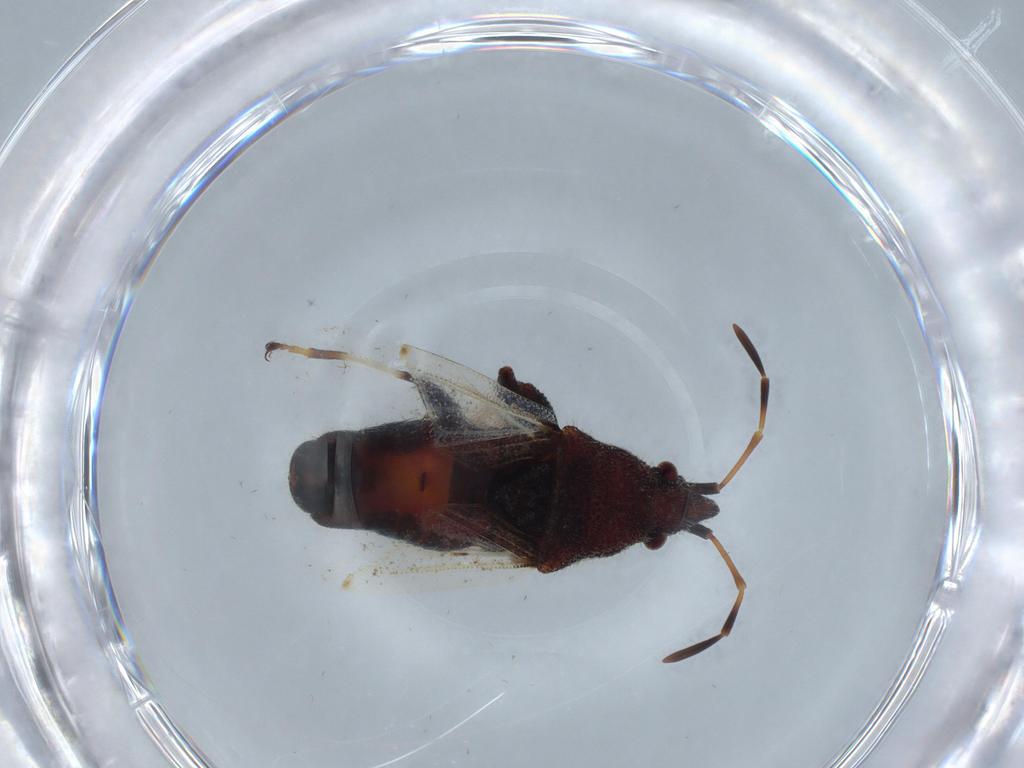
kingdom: Animalia
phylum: Arthropoda
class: Insecta
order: Hemiptera
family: Oxycarenidae
